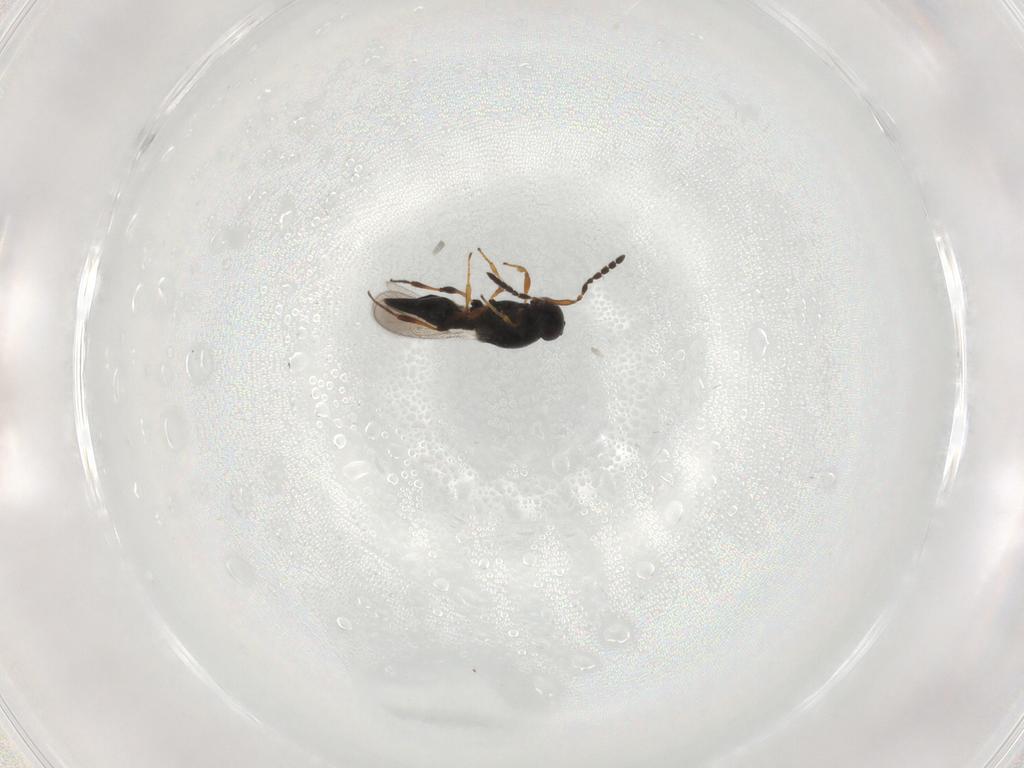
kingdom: Animalia
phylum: Arthropoda
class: Insecta
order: Hymenoptera
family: Platygastridae
